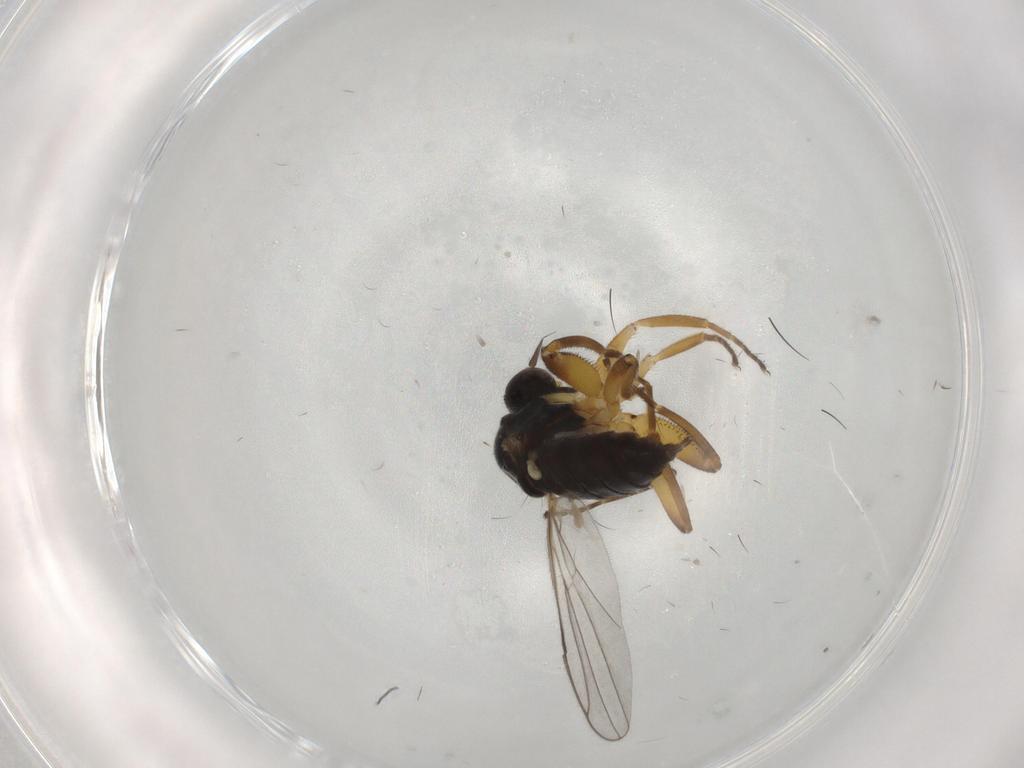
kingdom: Animalia
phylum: Arthropoda
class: Insecta
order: Diptera
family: Hybotidae
